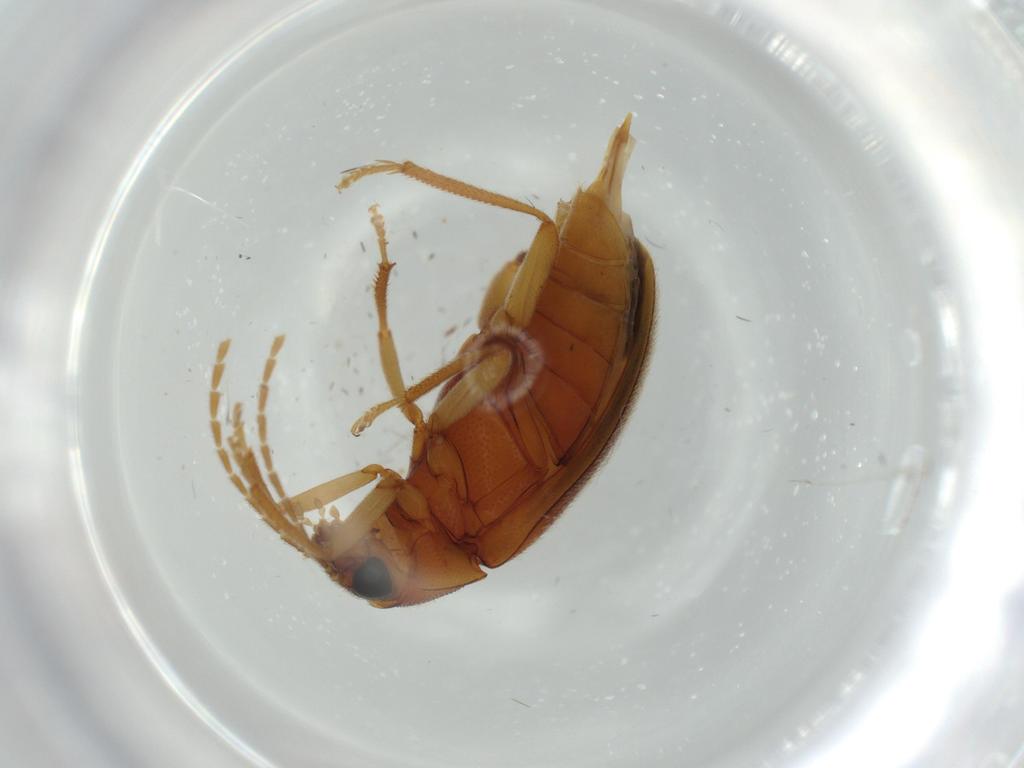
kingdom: Animalia
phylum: Arthropoda
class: Insecta
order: Coleoptera
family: Ptilodactylidae
